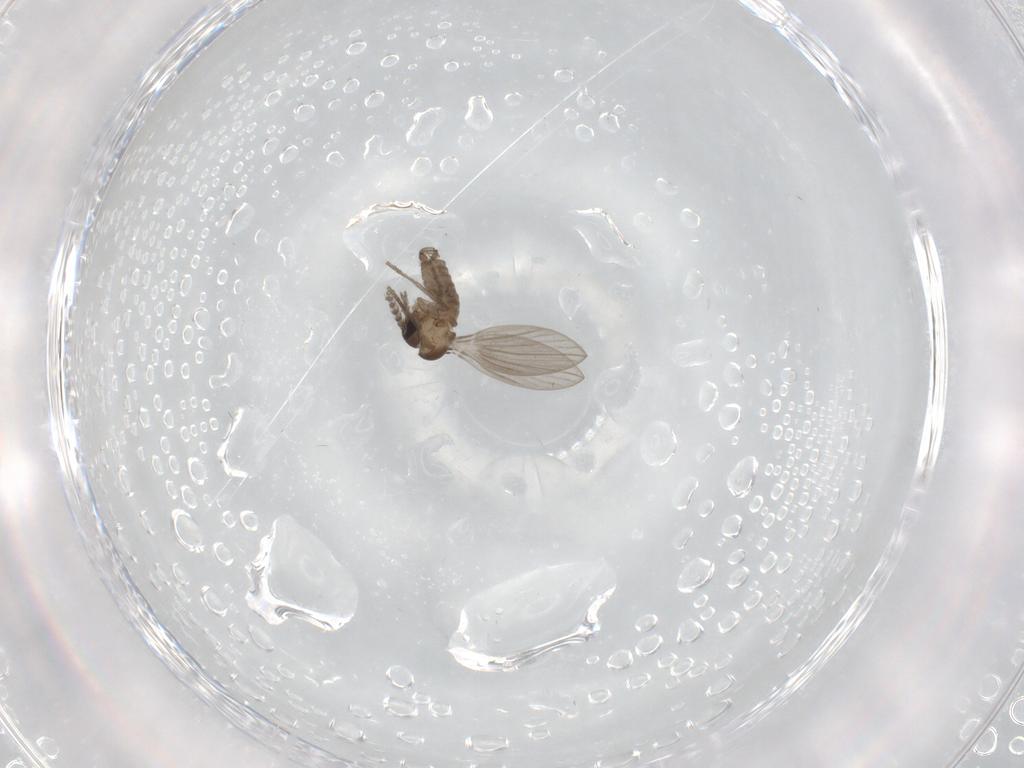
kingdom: Animalia
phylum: Arthropoda
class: Insecta
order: Diptera
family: Psychodidae
